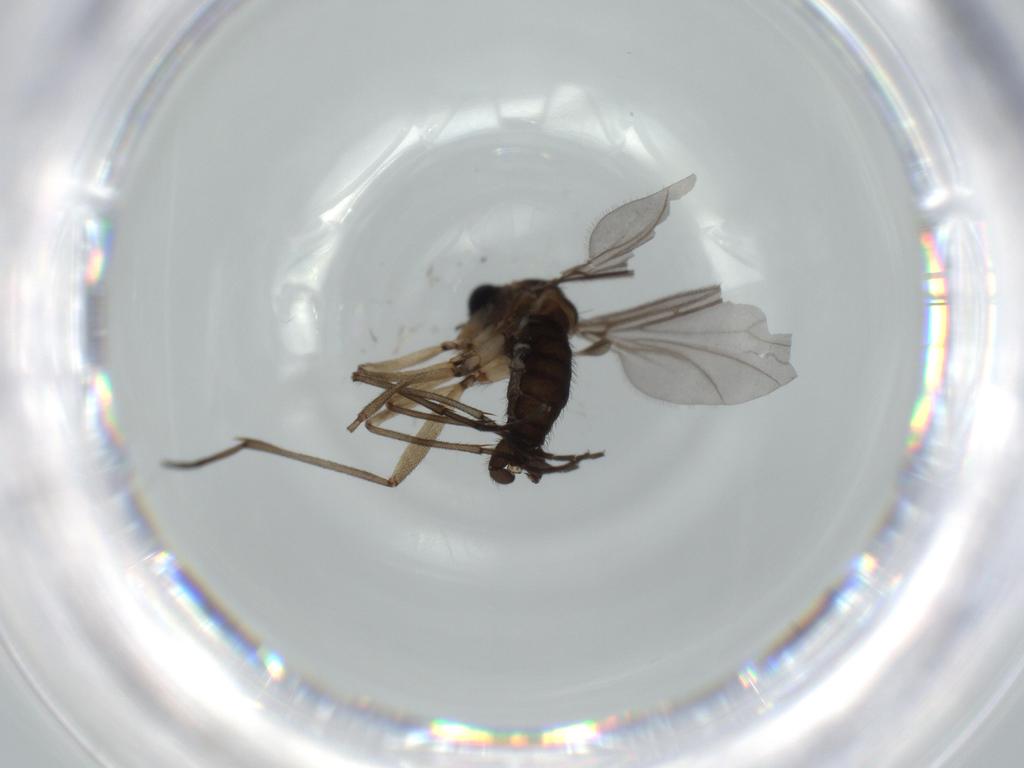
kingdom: Animalia
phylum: Arthropoda
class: Insecta
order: Diptera
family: Sciaridae
